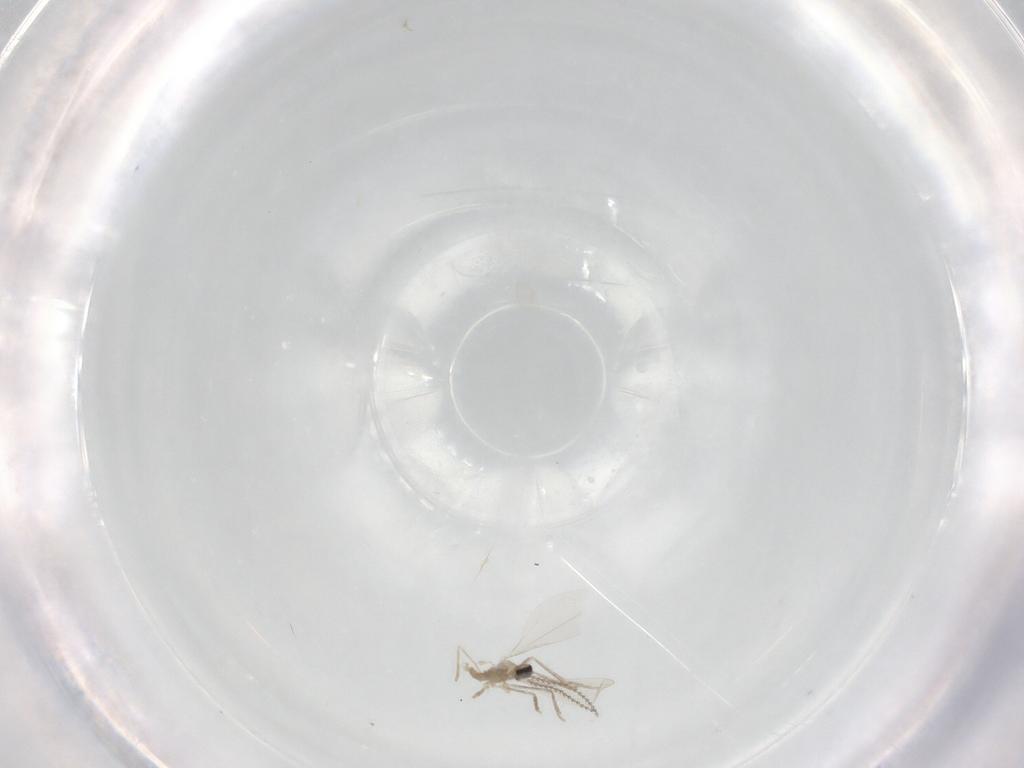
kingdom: Animalia
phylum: Arthropoda
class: Insecta
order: Diptera
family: Cecidomyiidae
